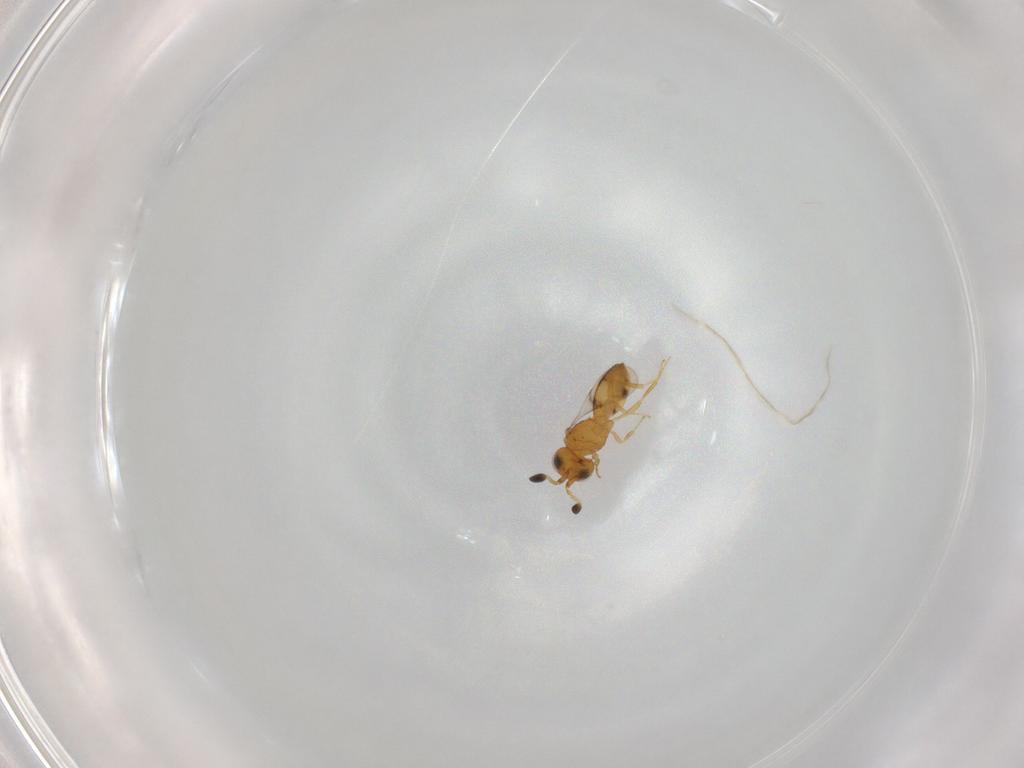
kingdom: Animalia
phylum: Arthropoda
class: Insecta
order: Hymenoptera
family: Scelionidae
